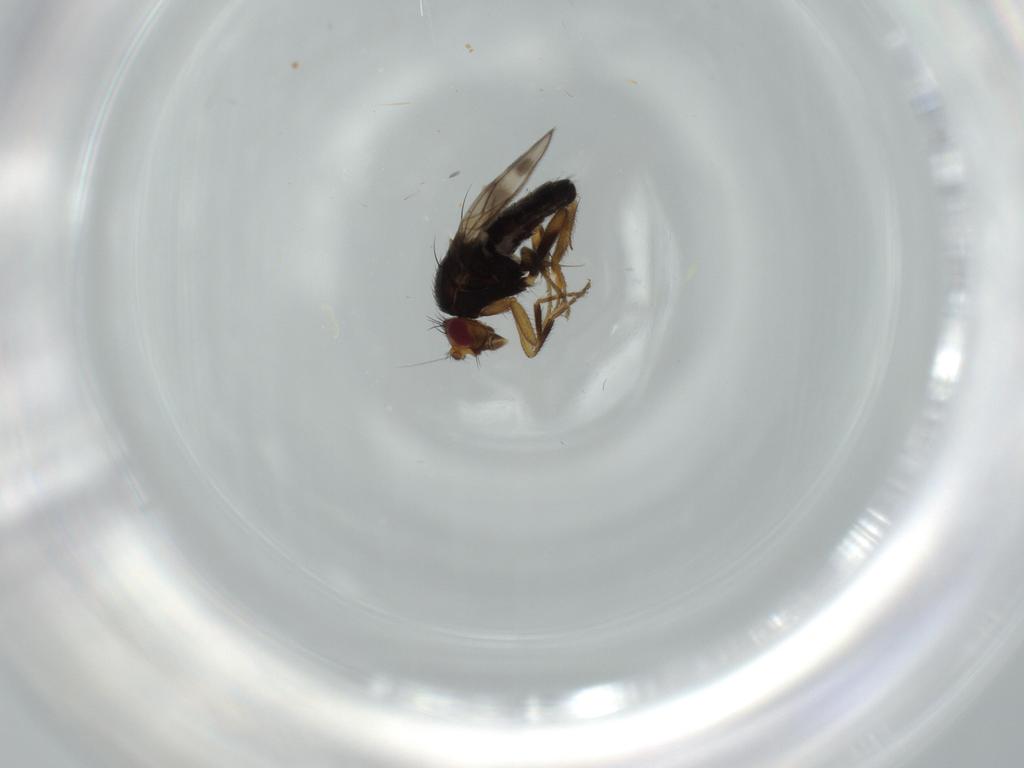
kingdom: Animalia
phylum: Arthropoda
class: Insecta
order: Diptera
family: Sphaeroceridae
